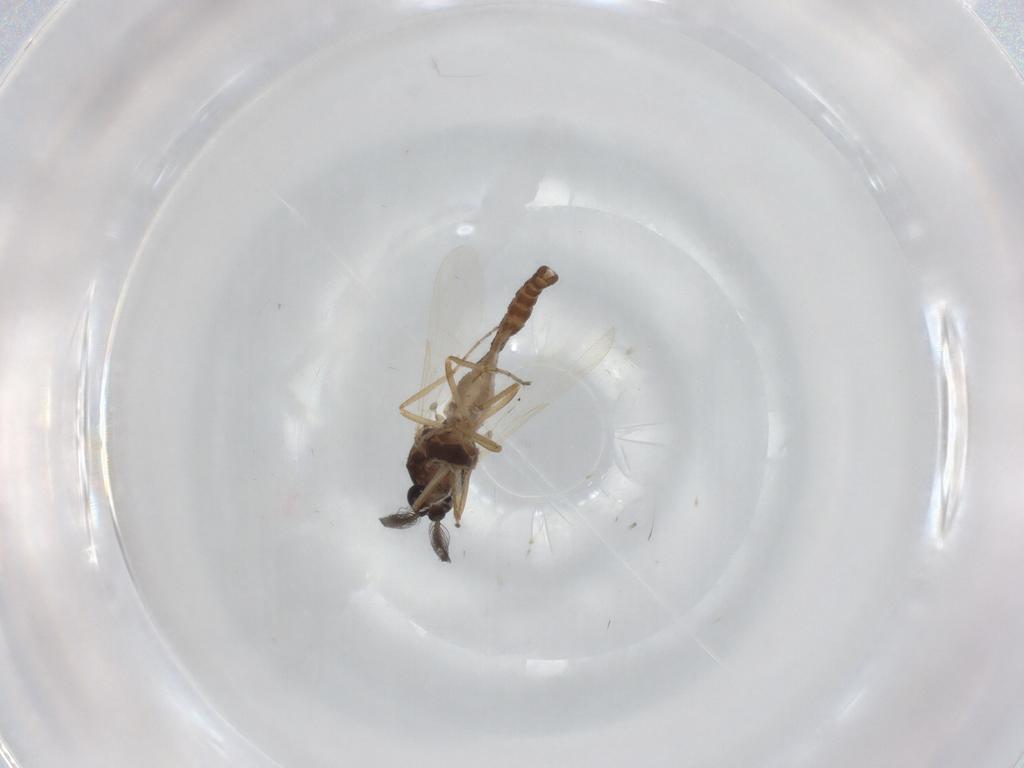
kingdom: Animalia
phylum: Arthropoda
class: Insecta
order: Diptera
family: Ceratopogonidae
